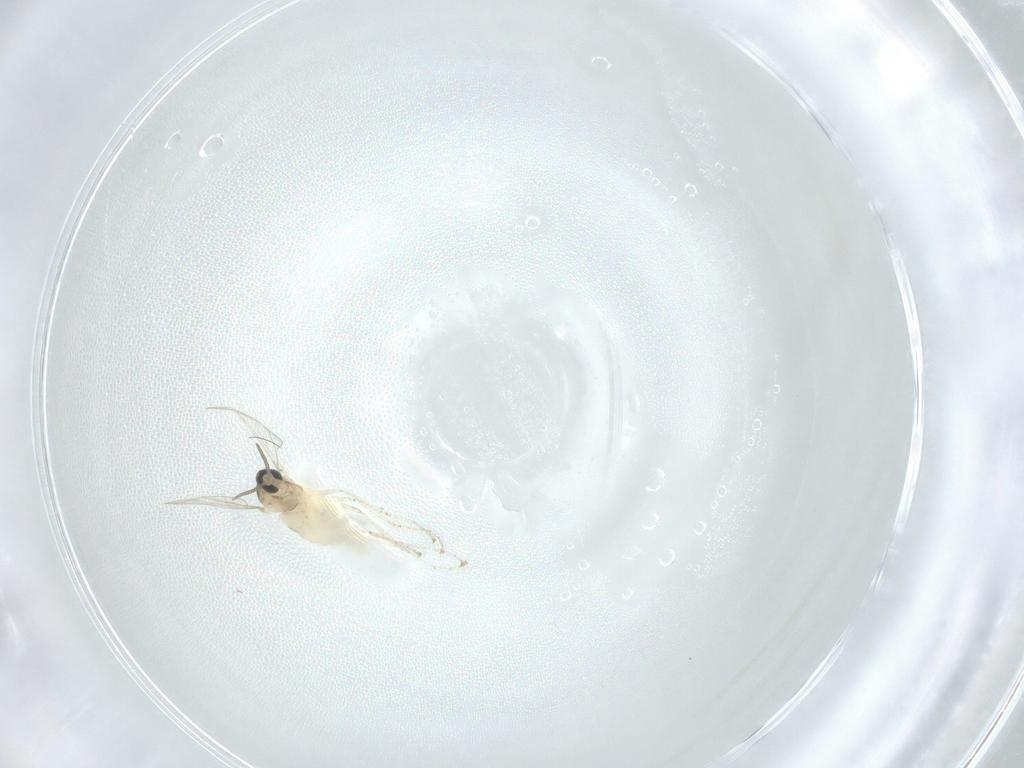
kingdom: Animalia
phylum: Arthropoda
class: Insecta
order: Diptera
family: Cecidomyiidae
